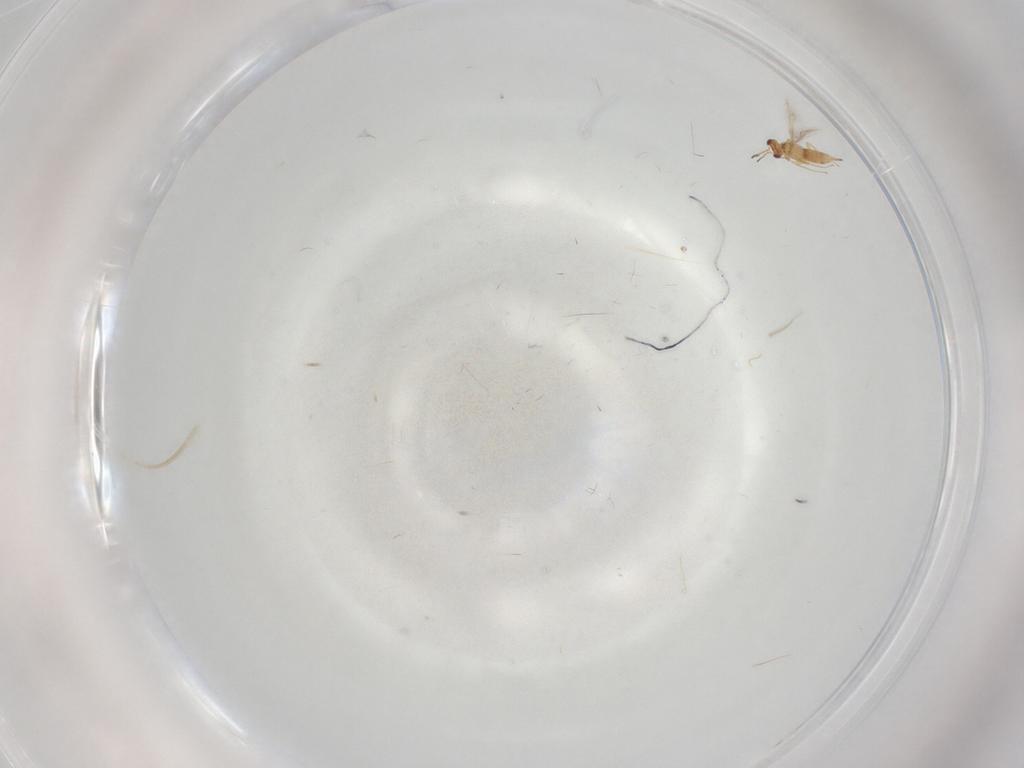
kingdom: Animalia
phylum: Arthropoda
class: Insecta
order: Hymenoptera
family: Mymaridae
